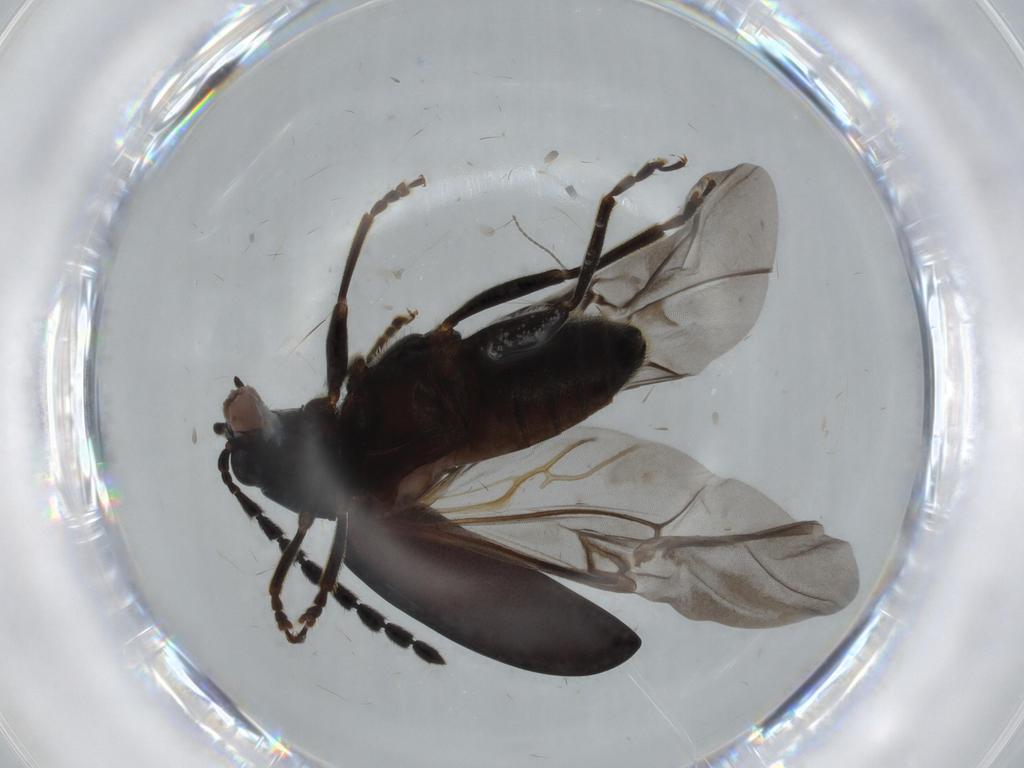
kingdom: Animalia
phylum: Arthropoda
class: Insecta
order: Coleoptera
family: Chrysomelidae
